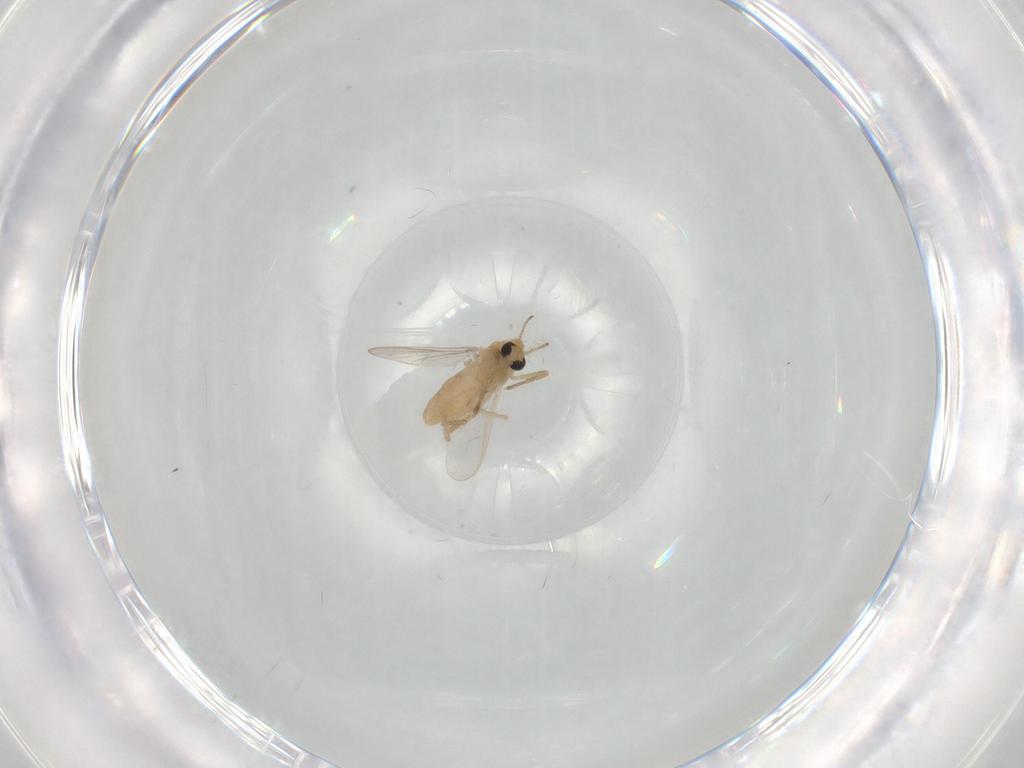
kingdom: Animalia
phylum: Arthropoda
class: Insecta
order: Diptera
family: Chironomidae
